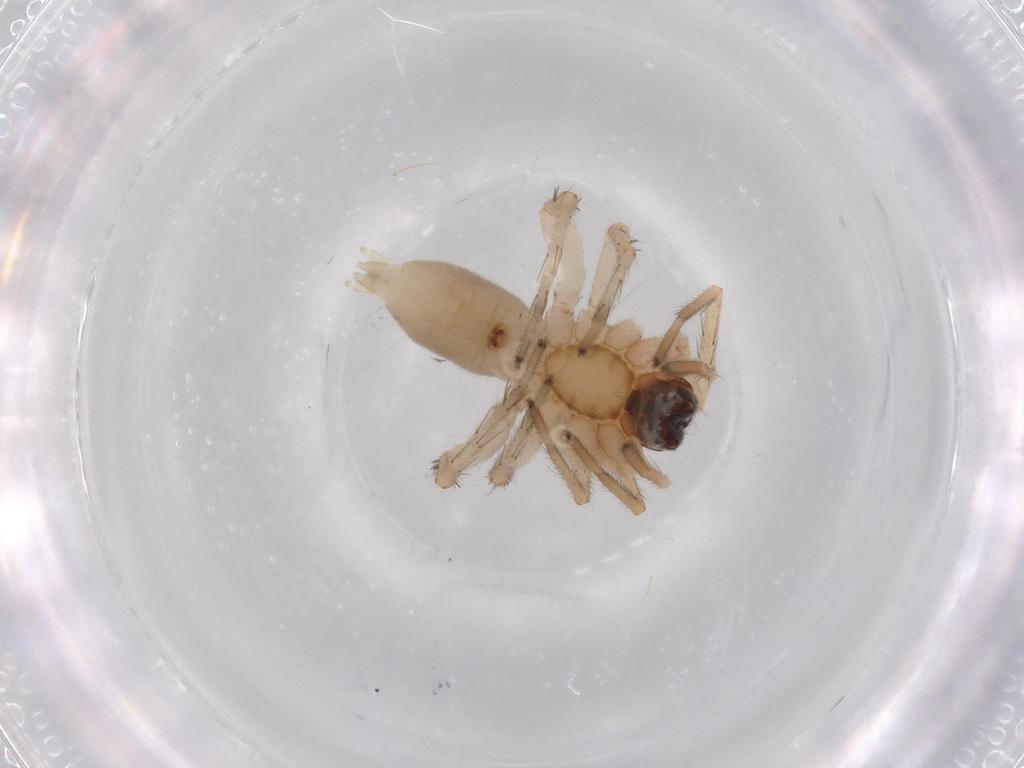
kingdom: Animalia
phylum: Arthropoda
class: Arachnida
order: Araneae
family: Anyphaenidae
